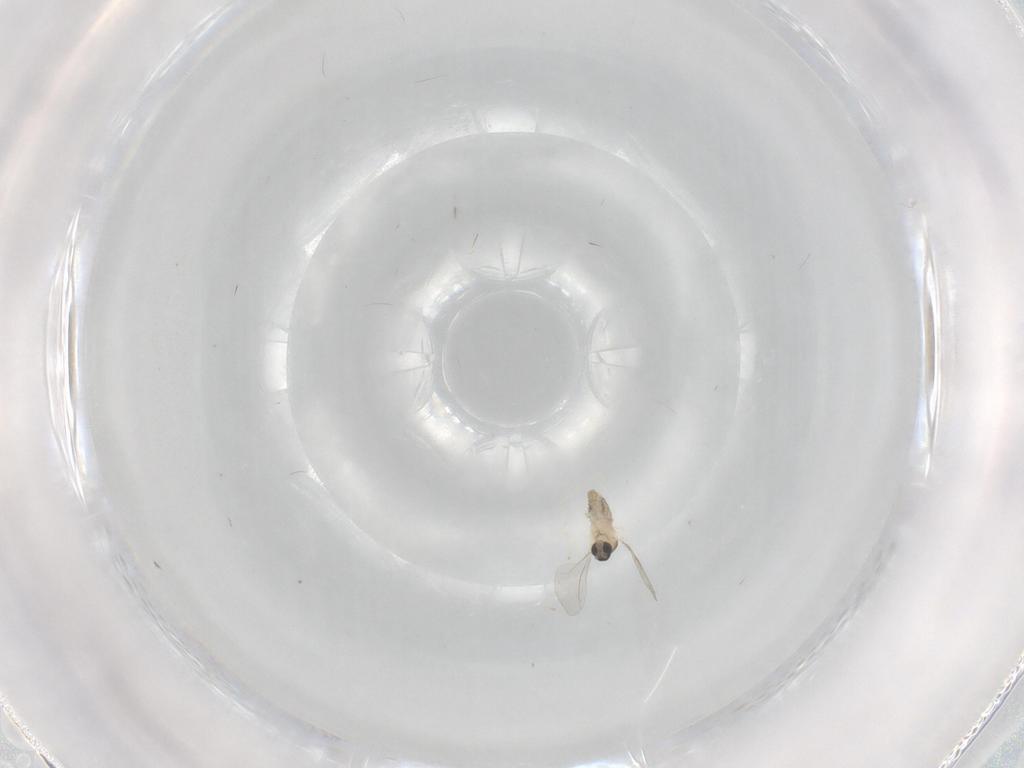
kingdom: Animalia
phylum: Arthropoda
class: Insecta
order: Diptera
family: Cecidomyiidae
